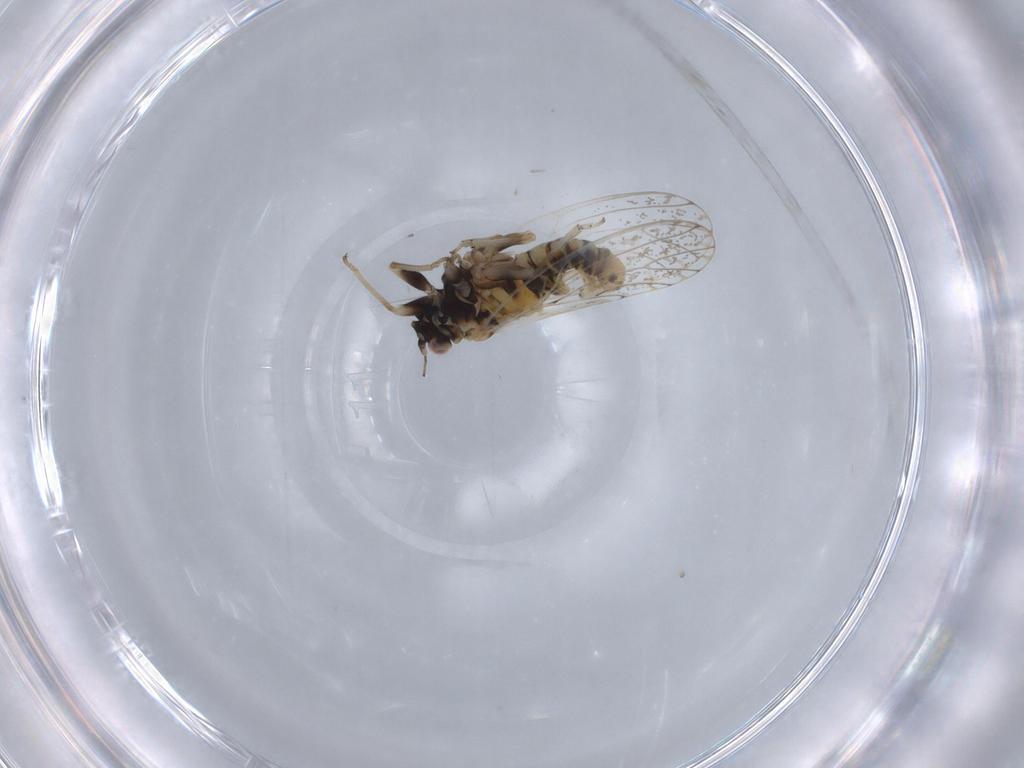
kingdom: Animalia
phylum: Arthropoda
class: Insecta
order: Hemiptera
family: Psyllidae
